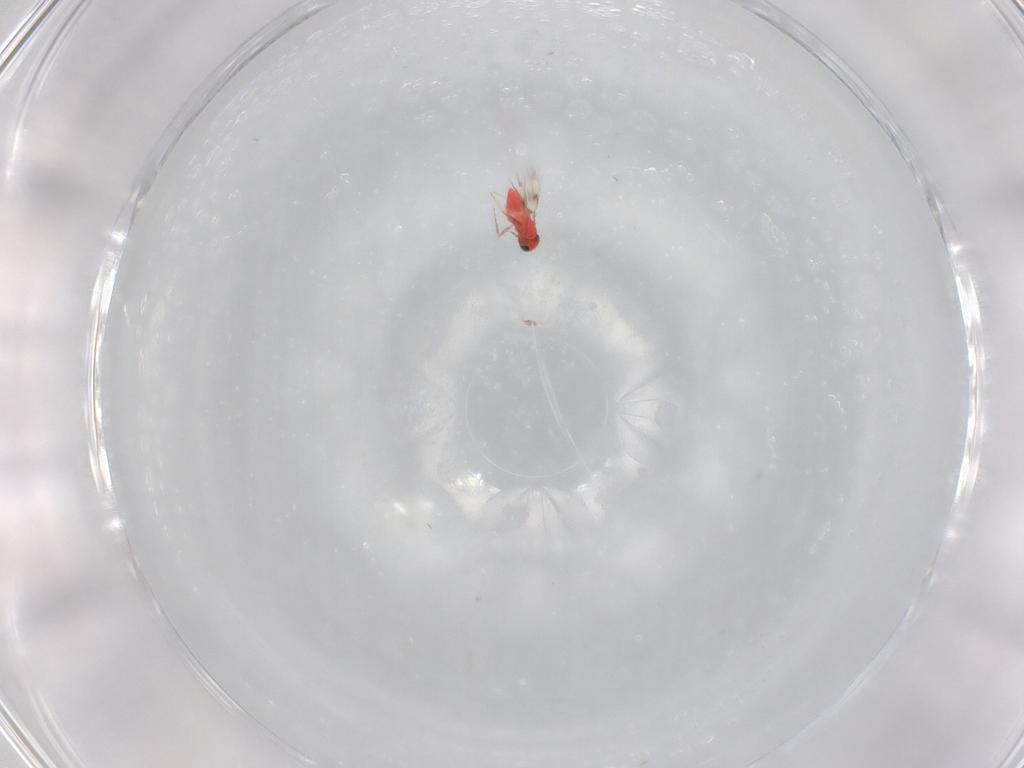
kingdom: Animalia
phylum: Arthropoda
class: Insecta
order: Hymenoptera
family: Trichogrammatidae
